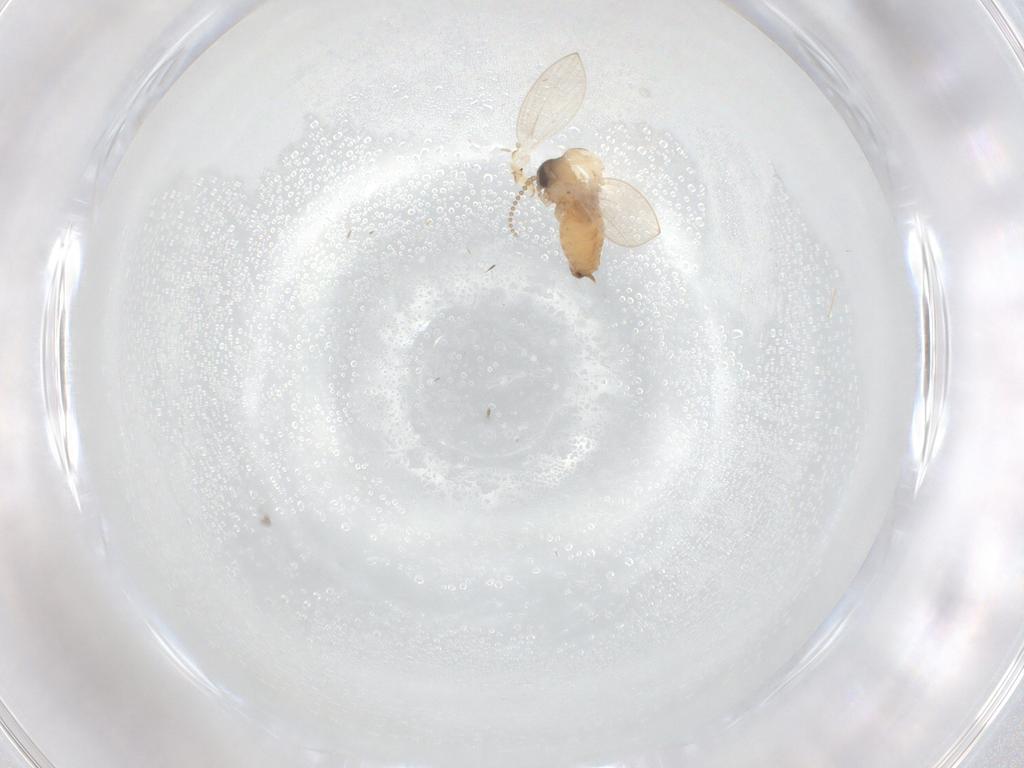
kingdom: Animalia
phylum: Arthropoda
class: Insecta
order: Diptera
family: Psychodidae
